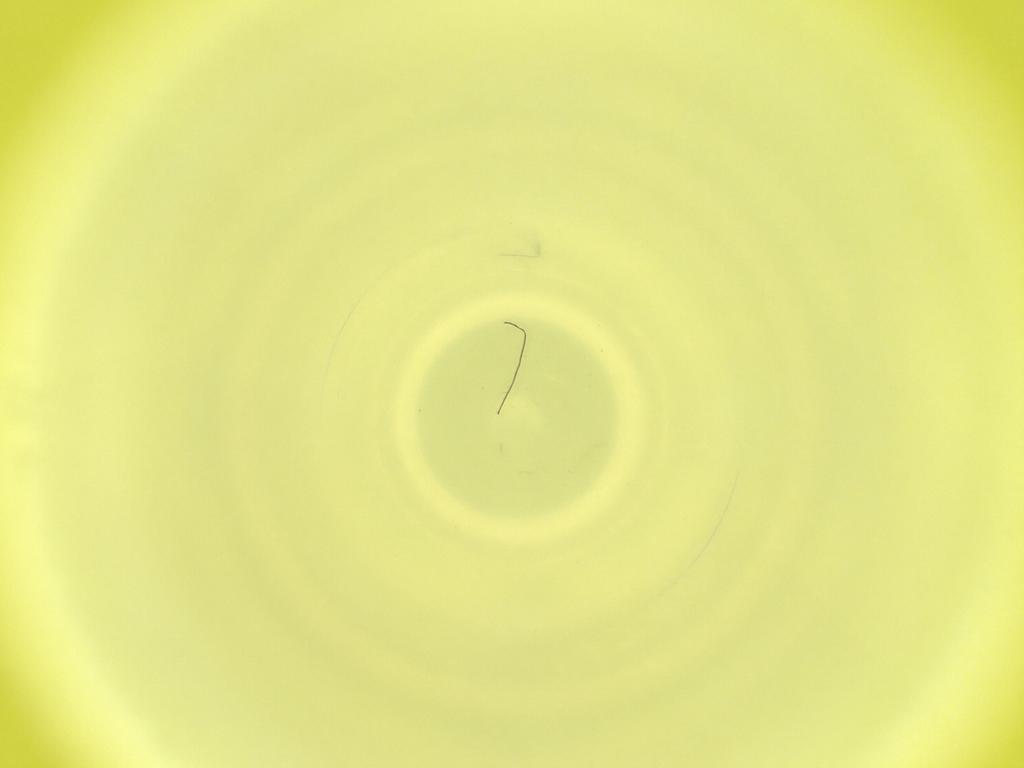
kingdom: Animalia
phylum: Arthropoda
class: Insecta
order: Diptera
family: Cecidomyiidae
